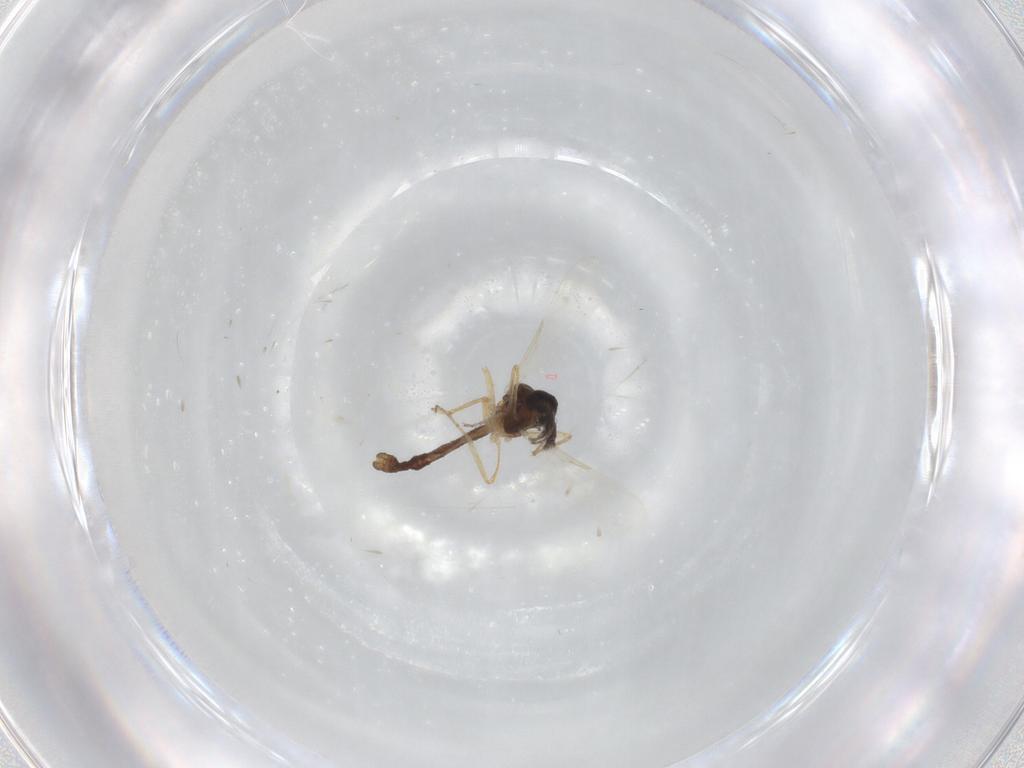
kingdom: Animalia
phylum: Arthropoda
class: Insecta
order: Diptera
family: Ceratopogonidae
